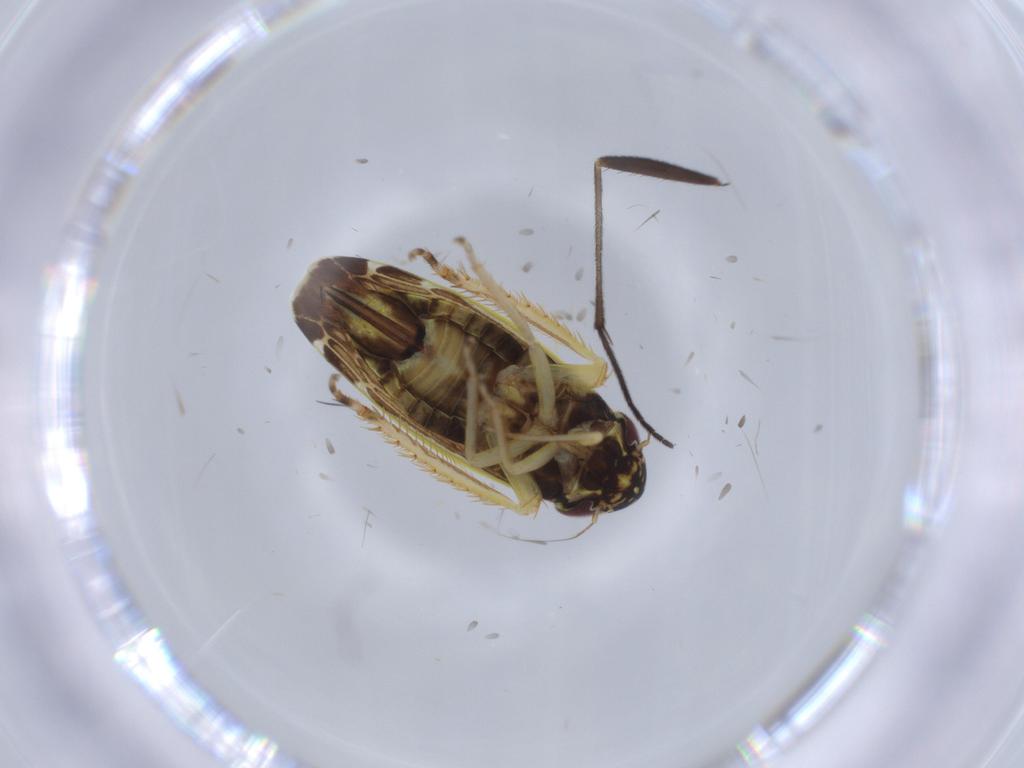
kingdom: Animalia
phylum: Arthropoda
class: Insecta
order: Hemiptera
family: Cicadellidae
